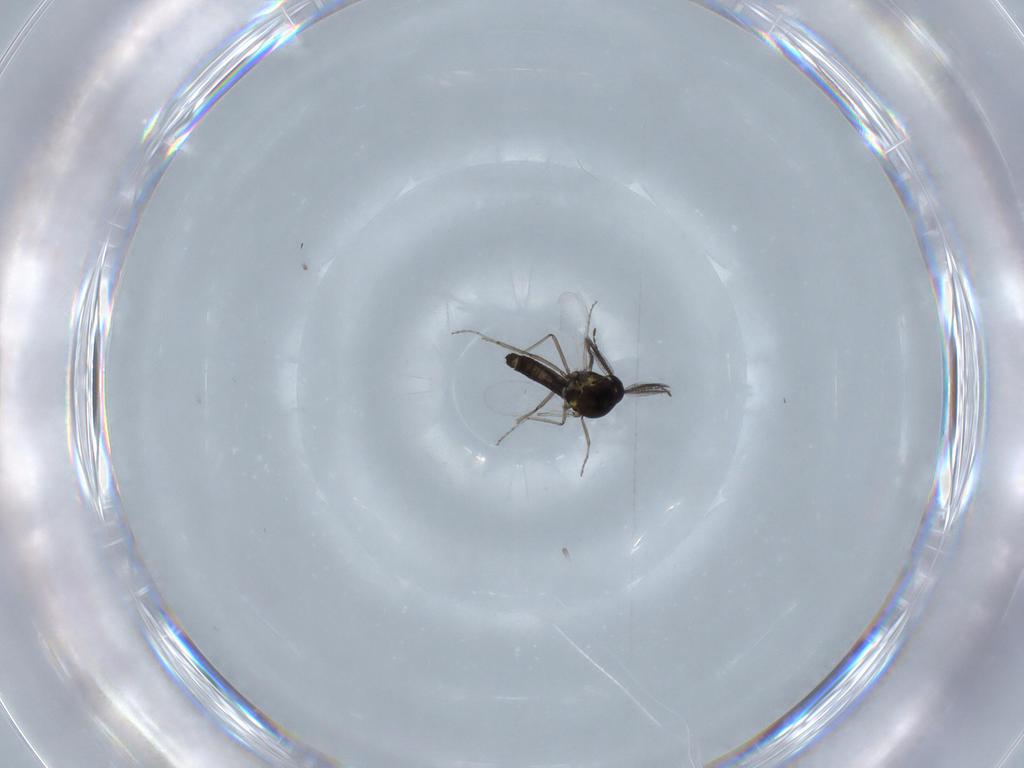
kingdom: Animalia
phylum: Arthropoda
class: Insecta
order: Diptera
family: Ceratopogonidae
